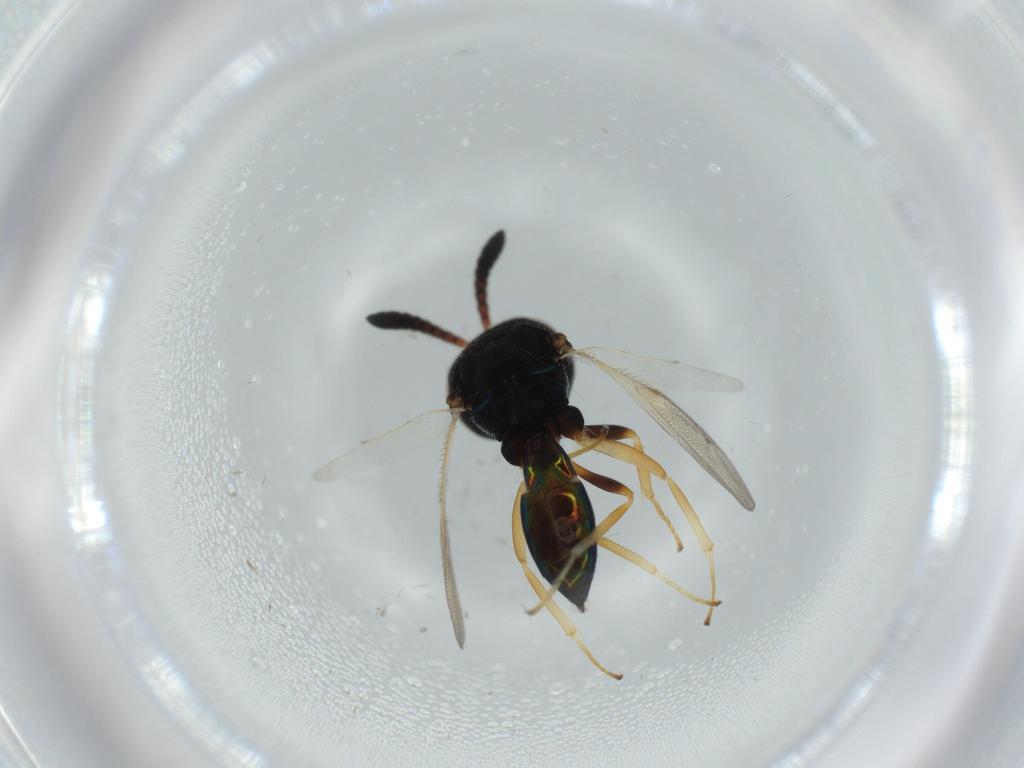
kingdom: Animalia
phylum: Arthropoda
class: Insecta
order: Hymenoptera
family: Pteromalidae
